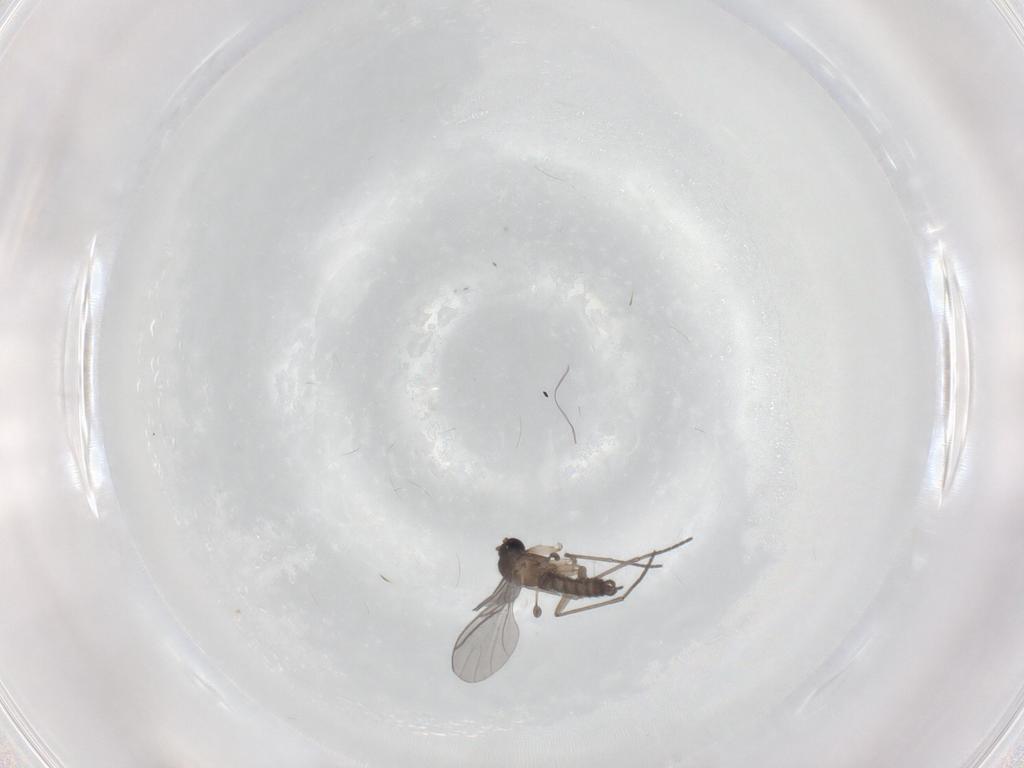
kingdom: Animalia
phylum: Arthropoda
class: Insecta
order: Diptera
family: Chironomidae
